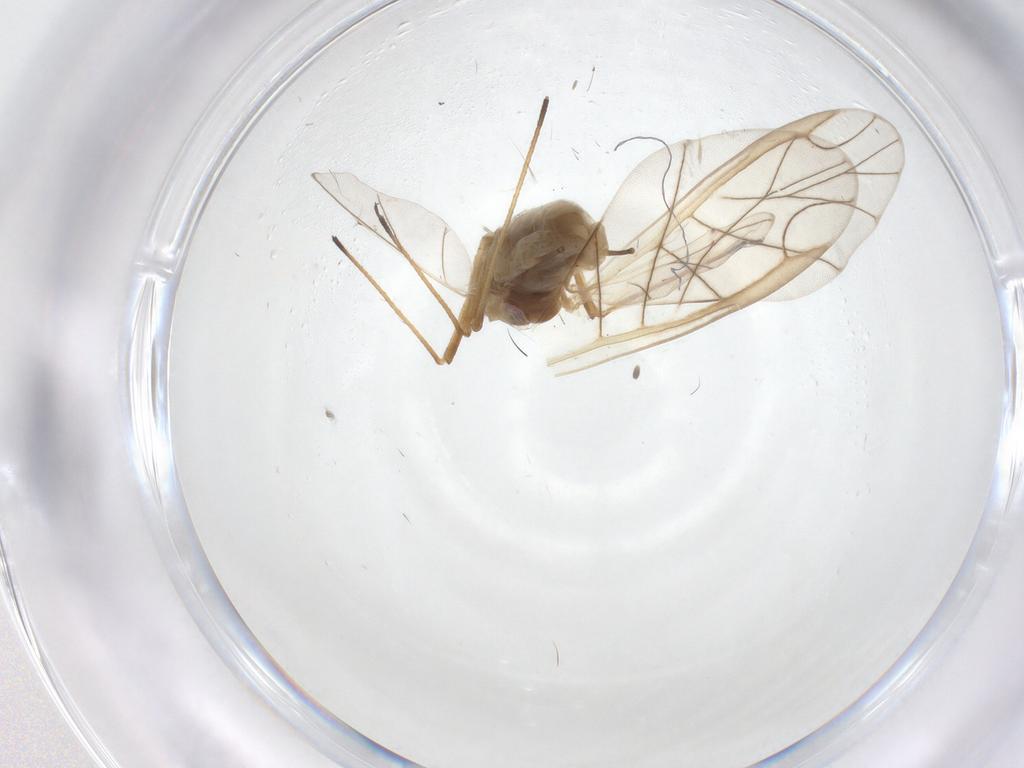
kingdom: Animalia
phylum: Arthropoda
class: Insecta
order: Hemiptera
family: Aphididae
